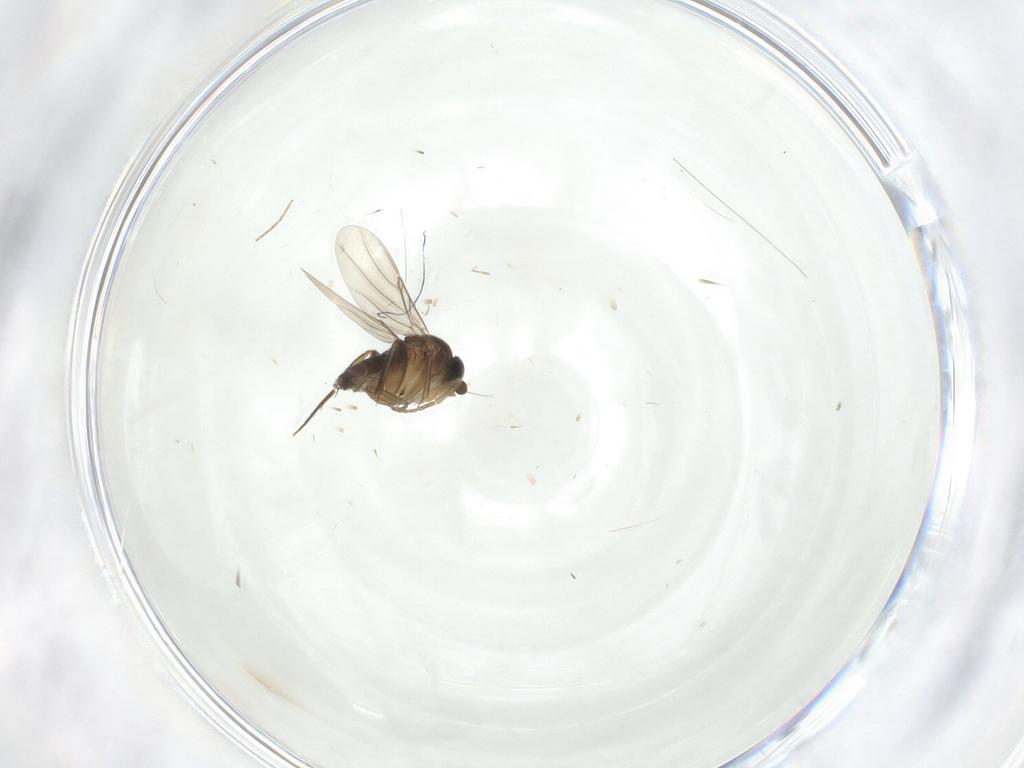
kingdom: Animalia
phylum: Arthropoda
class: Insecta
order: Diptera
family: Phoridae
